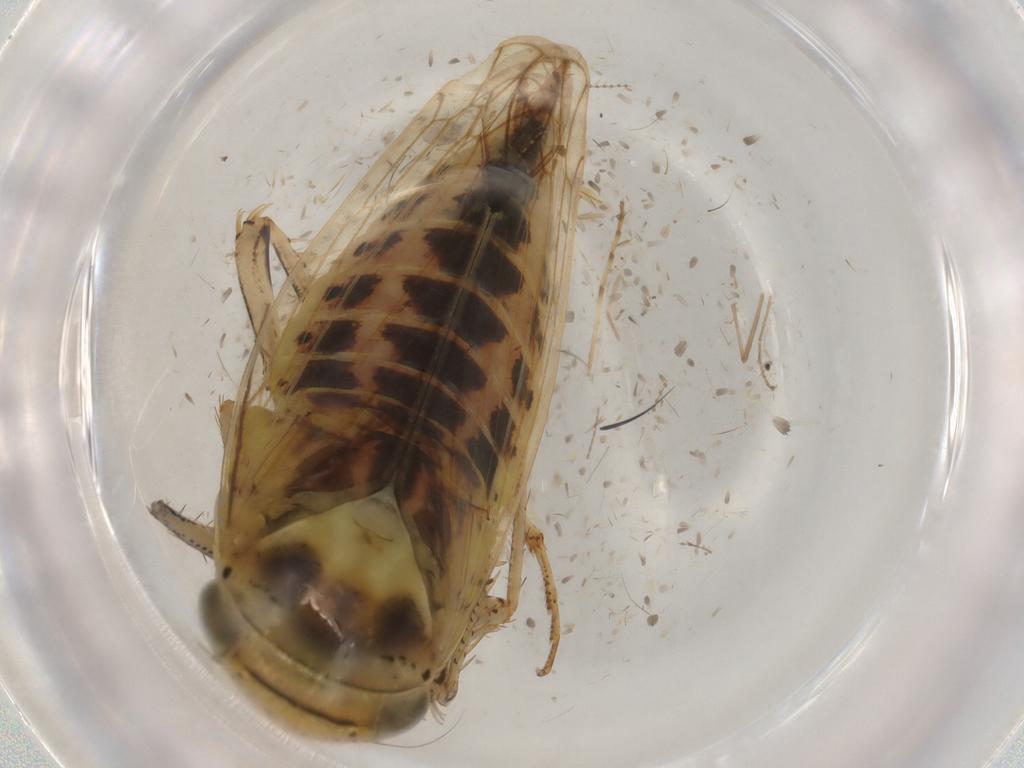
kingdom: Animalia
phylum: Arthropoda
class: Insecta
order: Hemiptera
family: Cicadellidae
